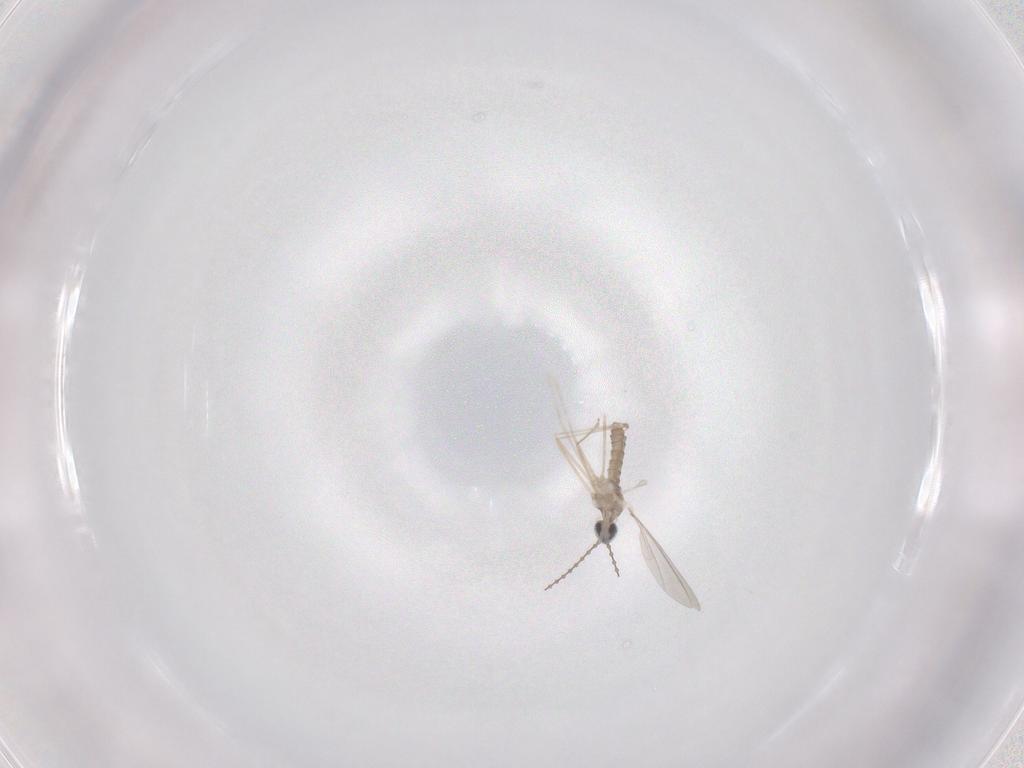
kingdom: Animalia
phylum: Arthropoda
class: Insecta
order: Diptera
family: Cecidomyiidae
